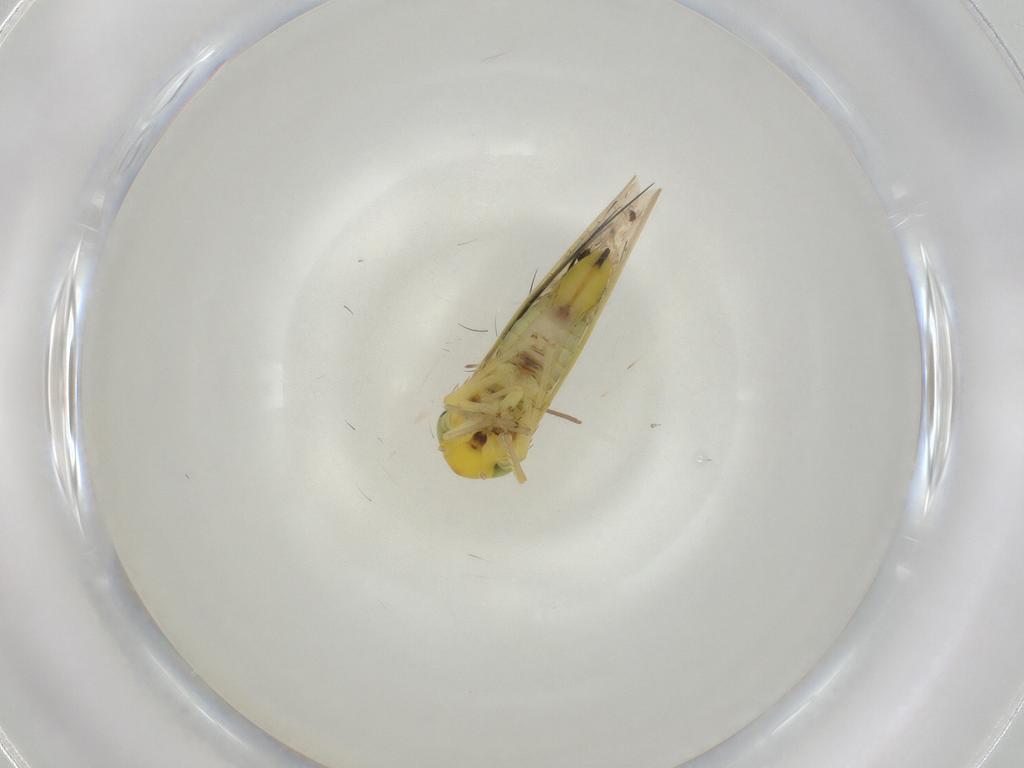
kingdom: Animalia
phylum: Arthropoda
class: Insecta
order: Hemiptera
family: Cicadellidae
